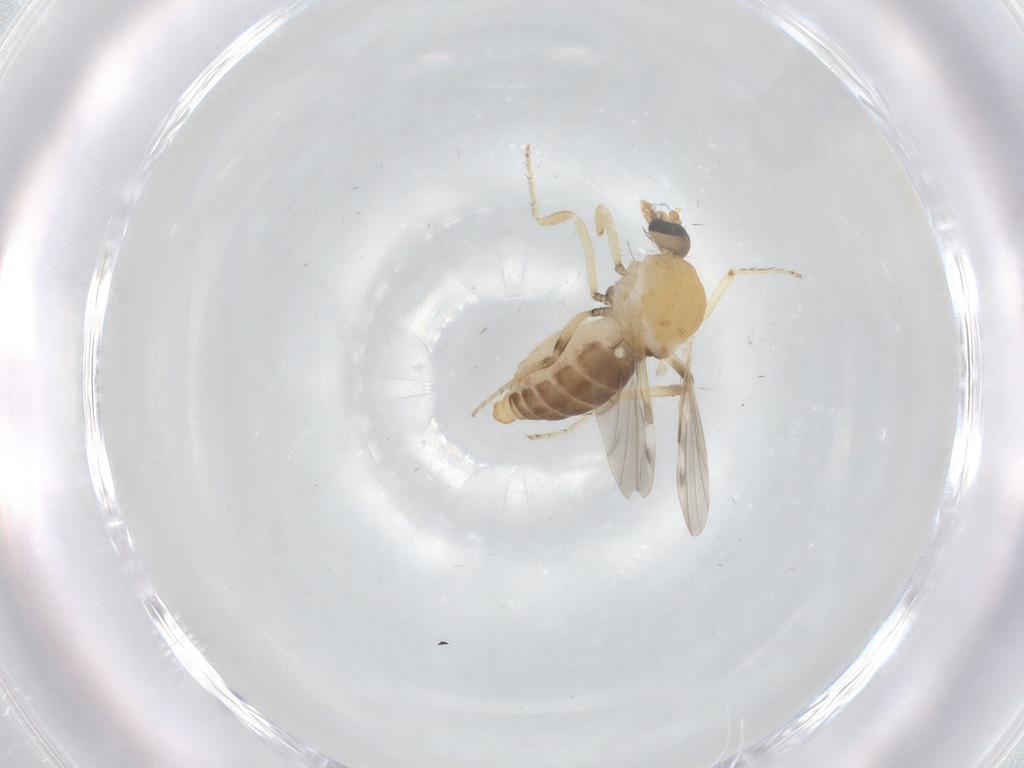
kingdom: Animalia
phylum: Arthropoda
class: Insecta
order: Diptera
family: Ceratopogonidae
